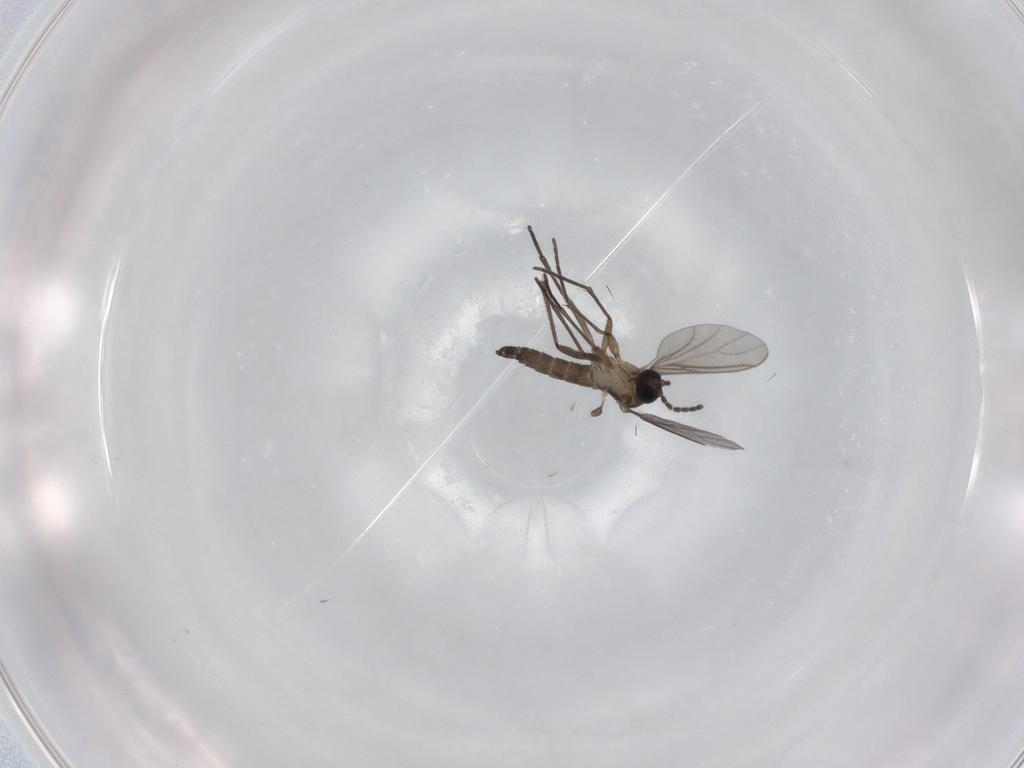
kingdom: Animalia
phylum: Arthropoda
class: Insecta
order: Diptera
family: Sciaridae
